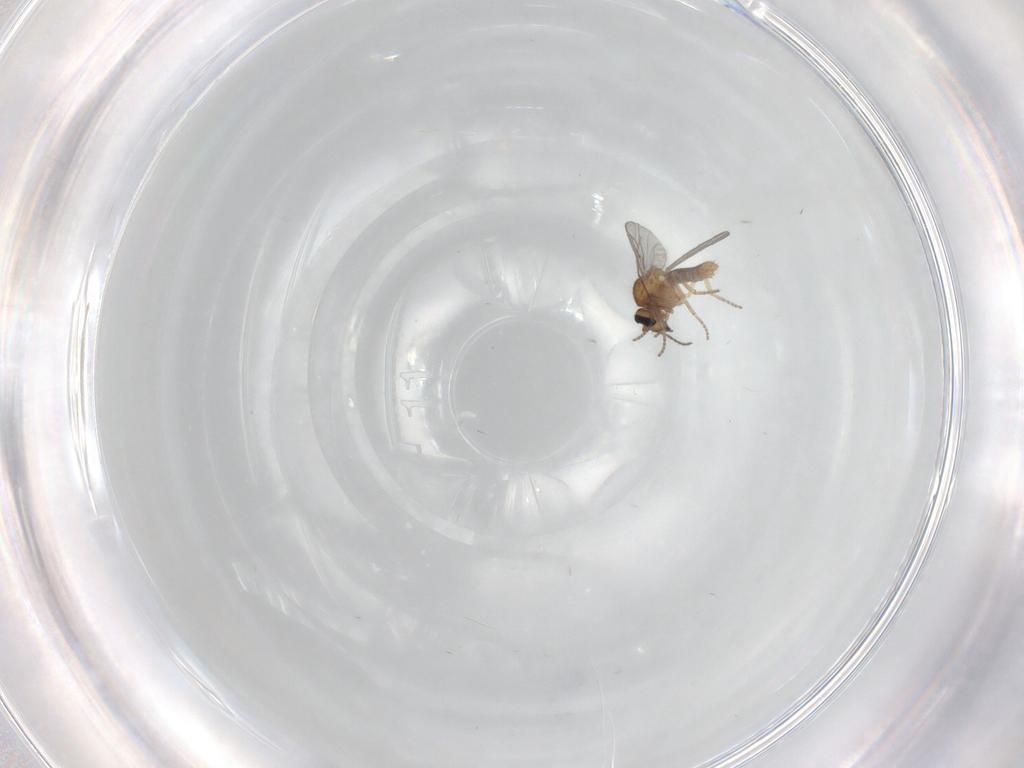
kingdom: Animalia
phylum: Arthropoda
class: Insecta
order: Diptera
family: Ceratopogonidae
